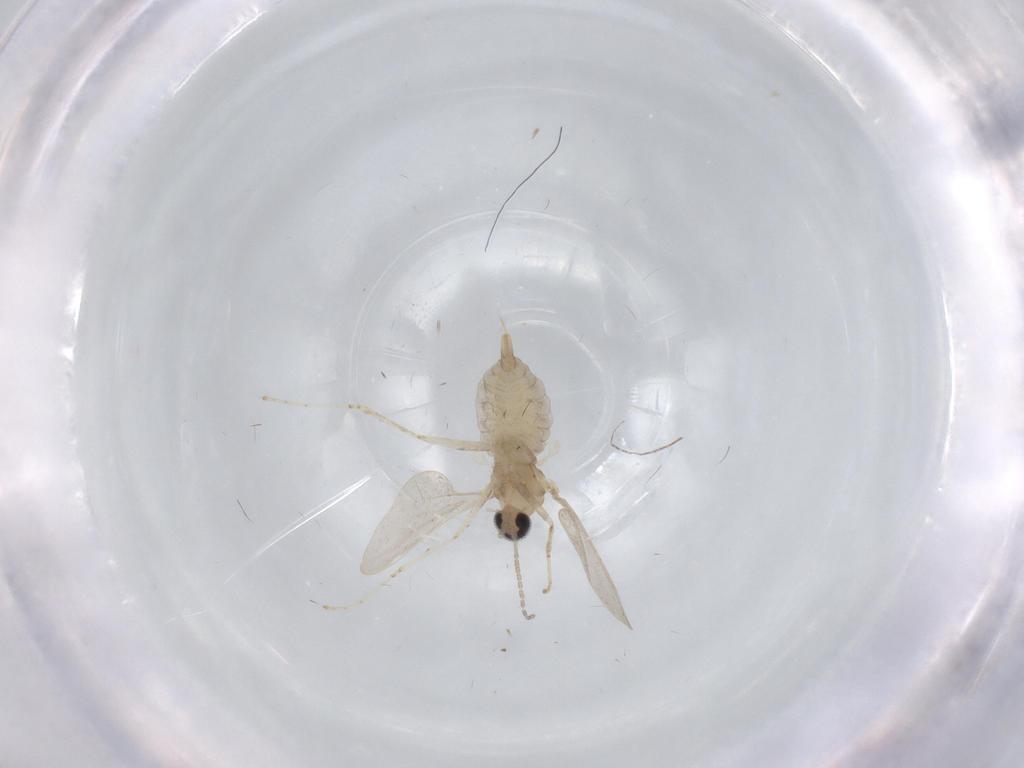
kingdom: Animalia
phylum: Arthropoda
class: Insecta
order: Diptera
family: Cecidomyiidae
